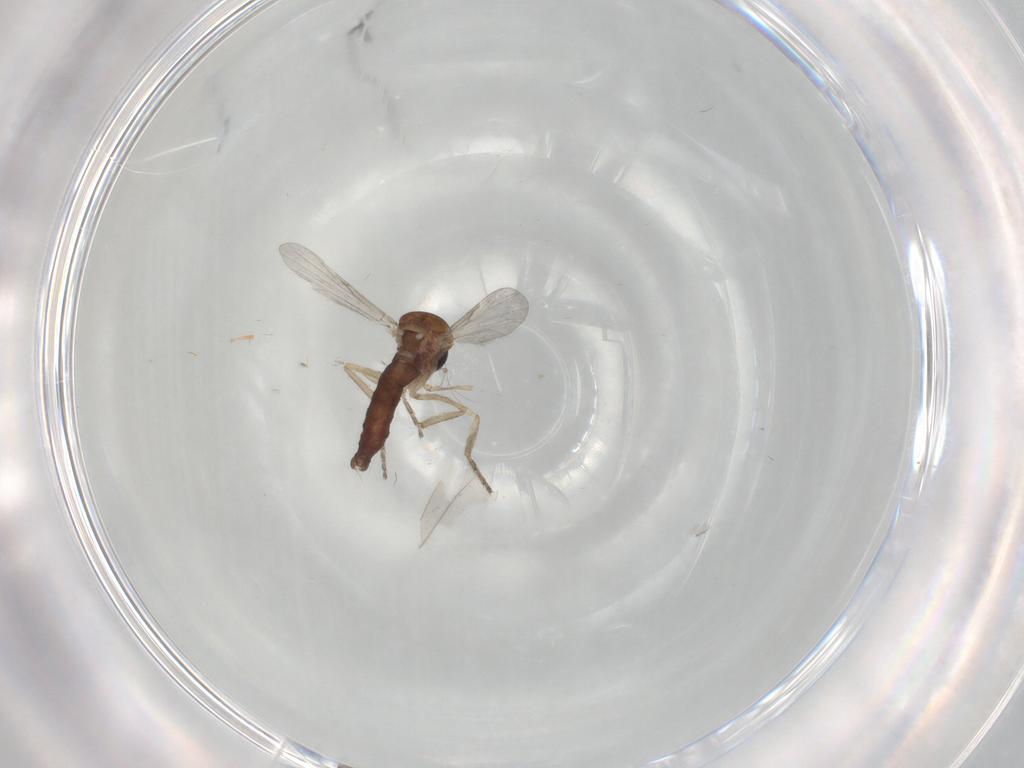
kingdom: Animalia
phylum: Arthropoda
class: Insecta
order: Diptera
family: Ceratopogonidae
